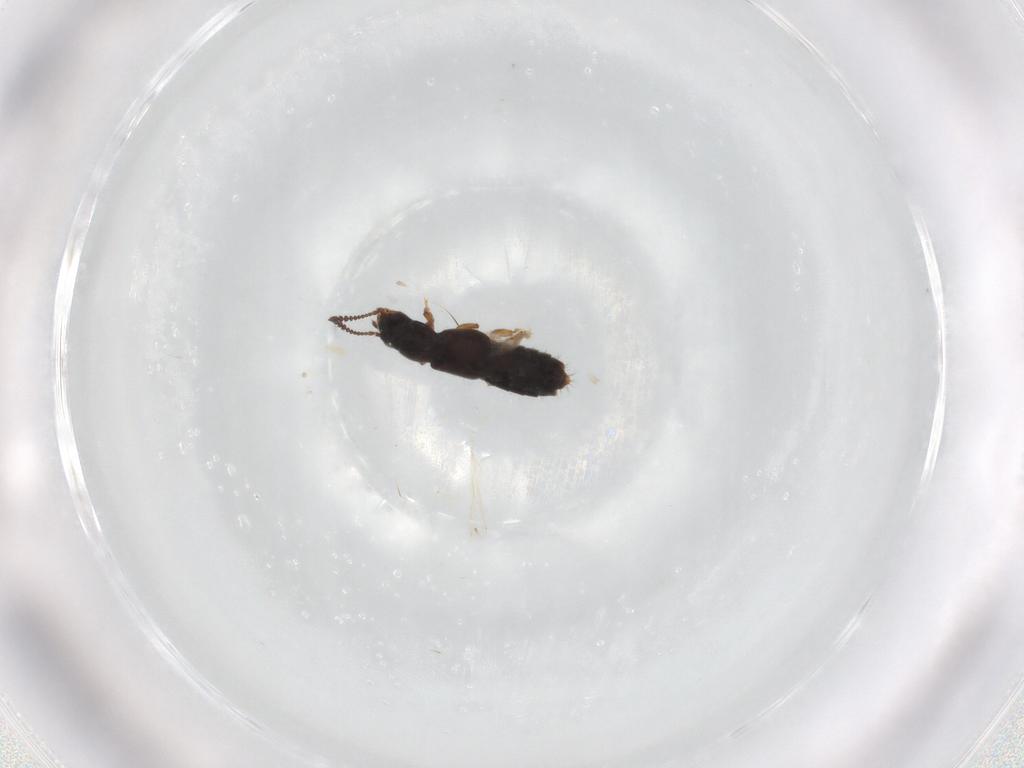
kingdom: Animalia
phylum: Arthropoda
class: Insecta
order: Coleoptera
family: Staphylinidae
